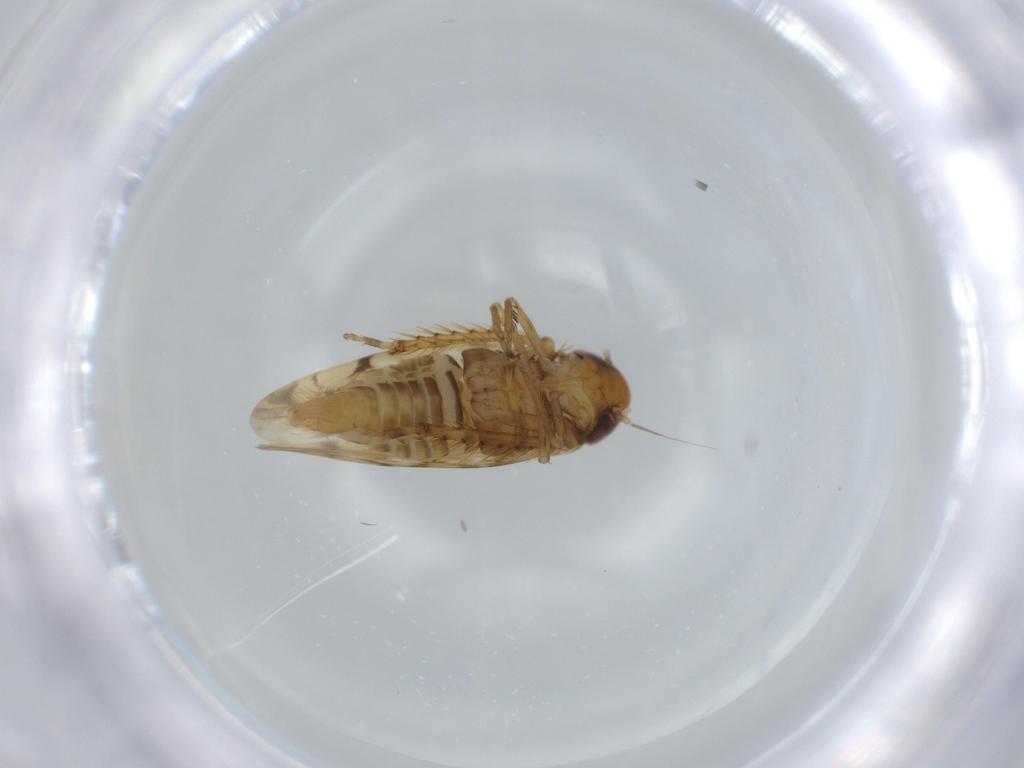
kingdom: Animalia
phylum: Arthropoda
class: Insecta
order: Hemiptera
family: Cicadellidae
